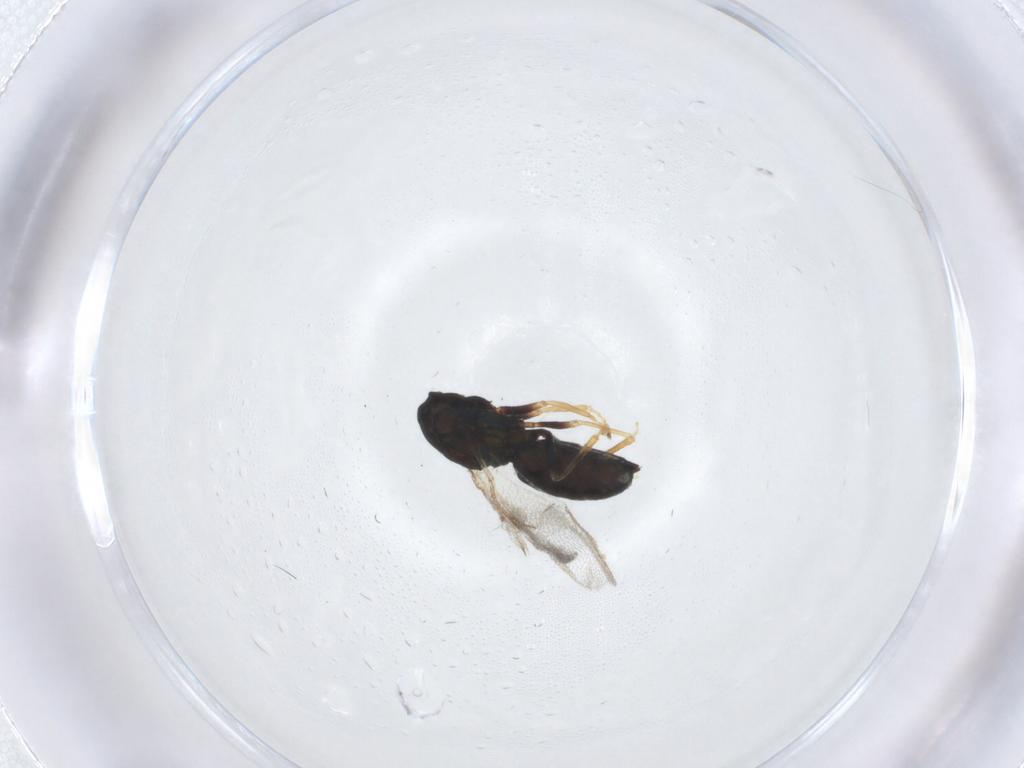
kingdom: Animalia
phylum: Arthropoda
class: Insecta
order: Hymenoptera
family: Eulophidae
